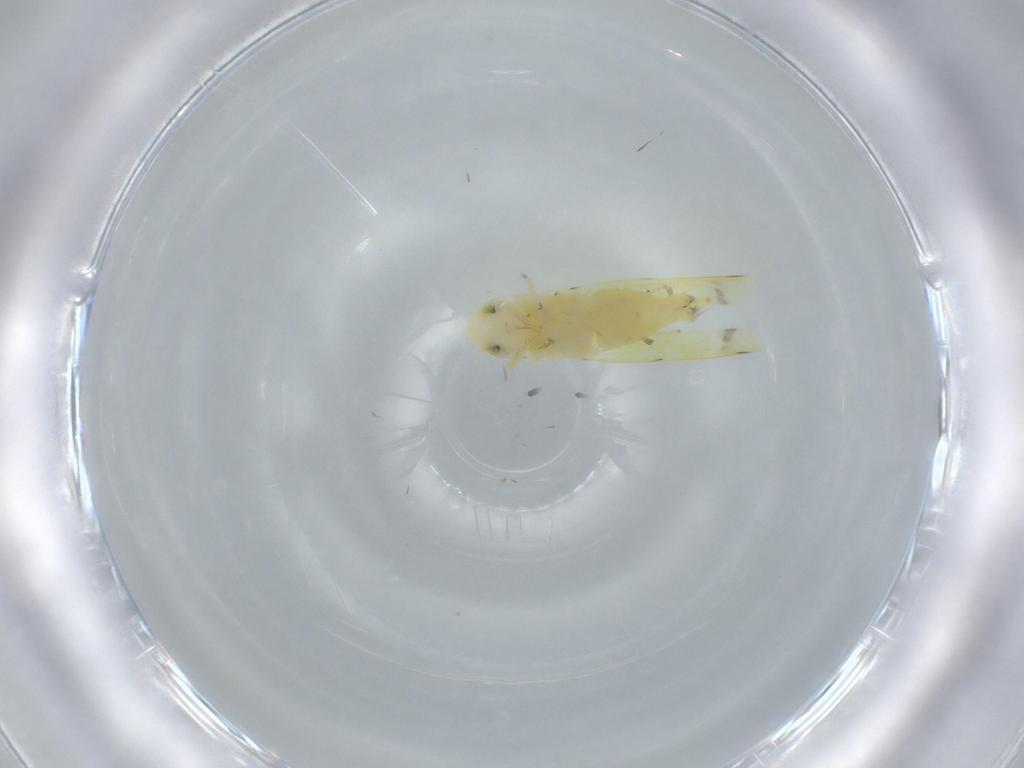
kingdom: Animalia
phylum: Arthropoda
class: Insecta
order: Hemiptera
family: Cicadellidae
